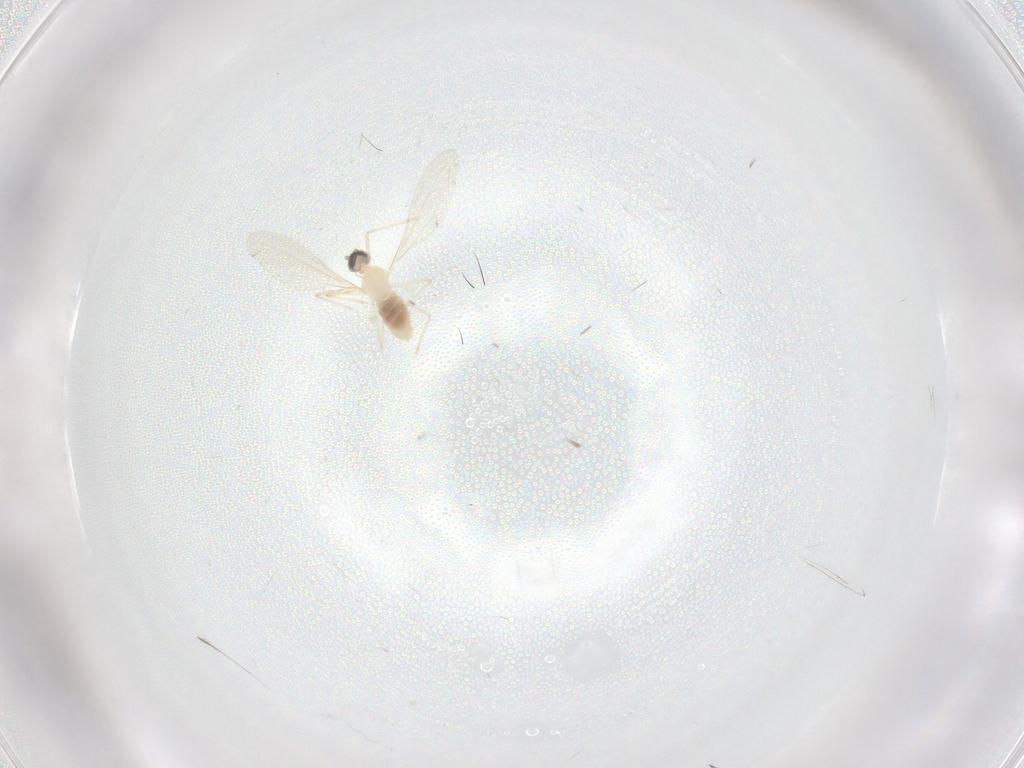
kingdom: Animalia
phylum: Arthropoda
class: Insecta
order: Diptera
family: Cecidomyiidae
